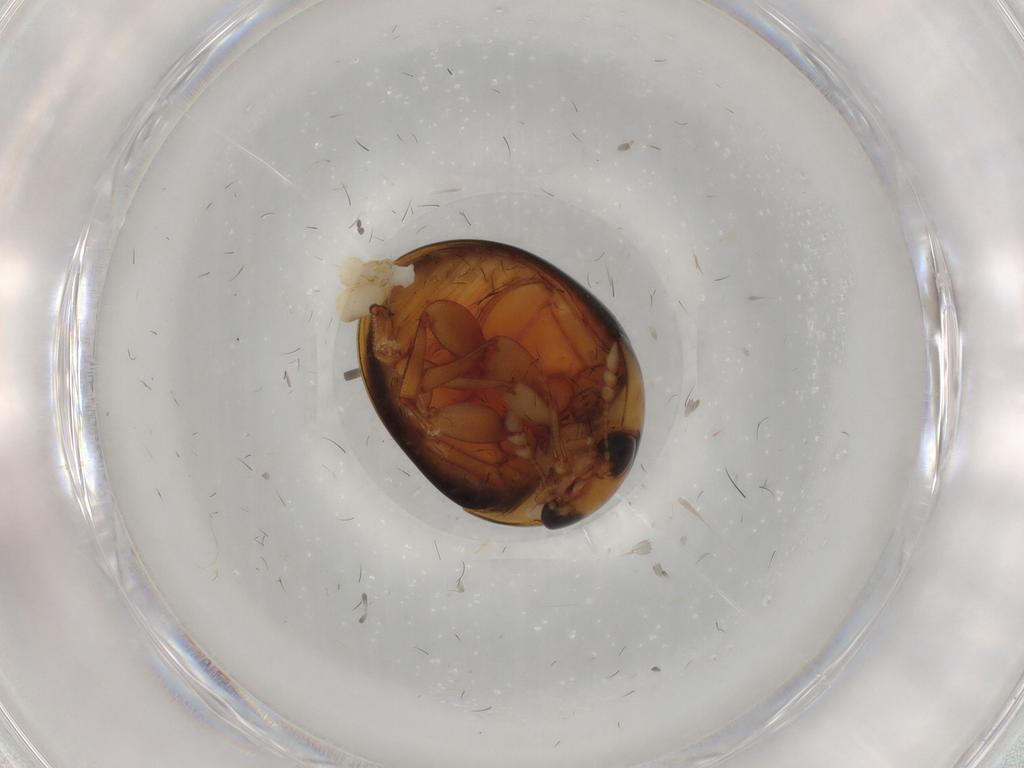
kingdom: Animalia
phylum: Arthropoda
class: Insecta
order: Coleoptera
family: Phalacridae
